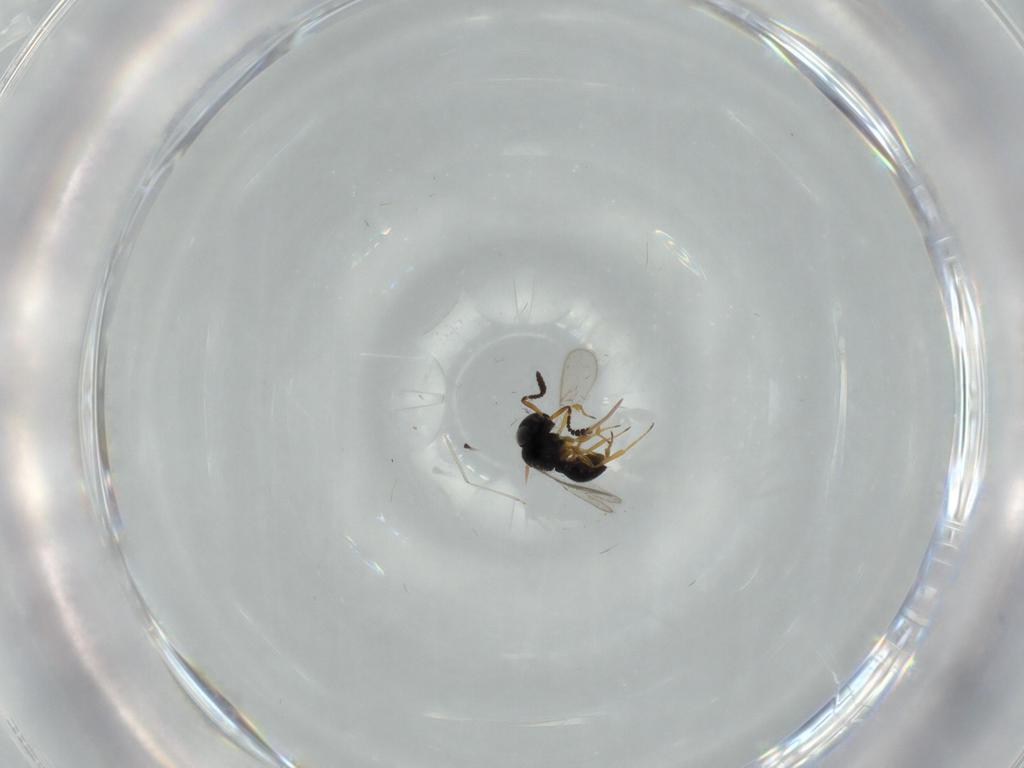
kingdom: Animalia
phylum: Arthropoda
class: Insecta
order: Hymenoptera
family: Scelionidae
